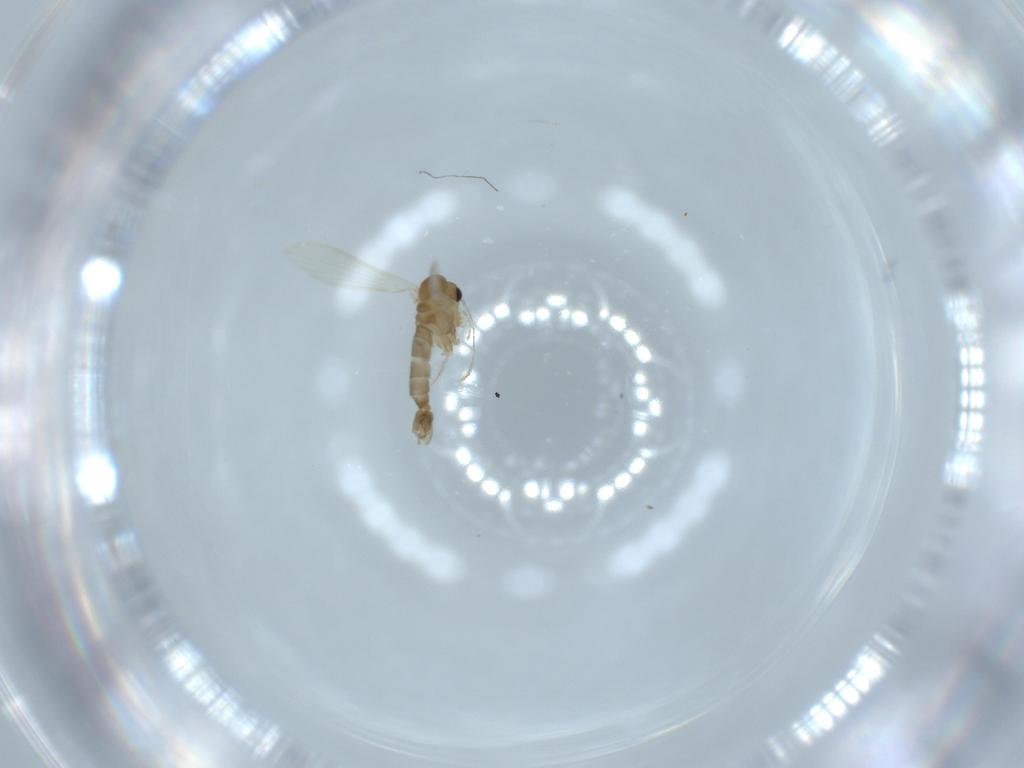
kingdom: Animalia
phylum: Arthropoda
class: Insecta
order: Diptera
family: Psychodidae
